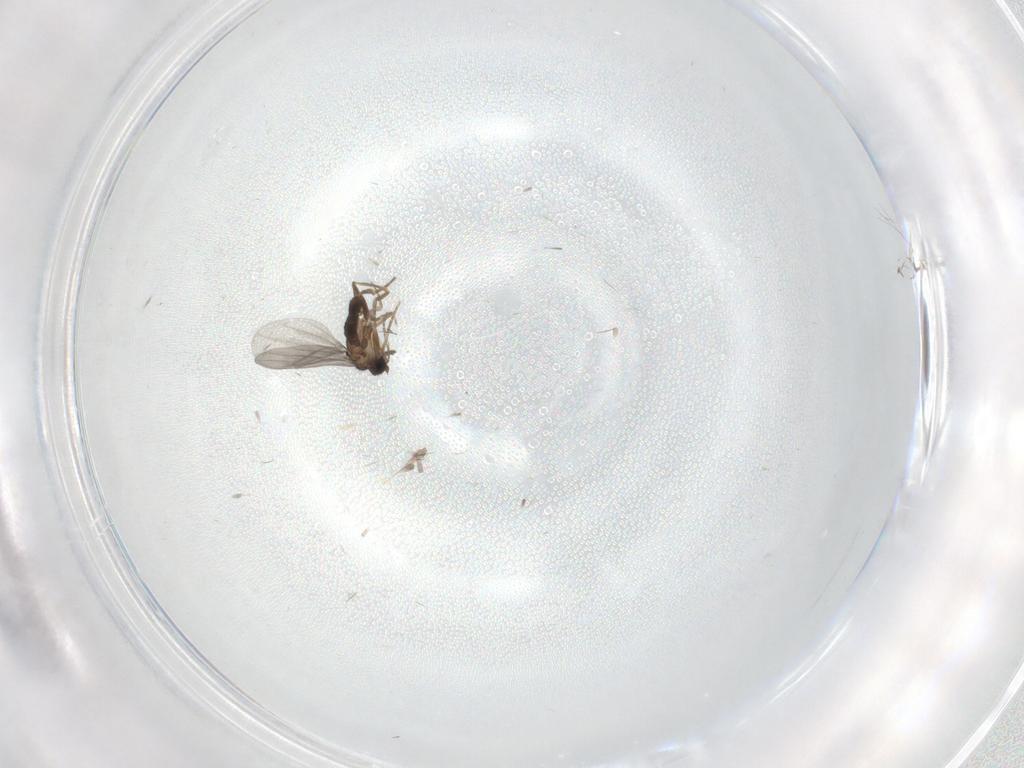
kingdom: Animalia
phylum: Arthropoda
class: Insecta
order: Diptera
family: Psychodidae
